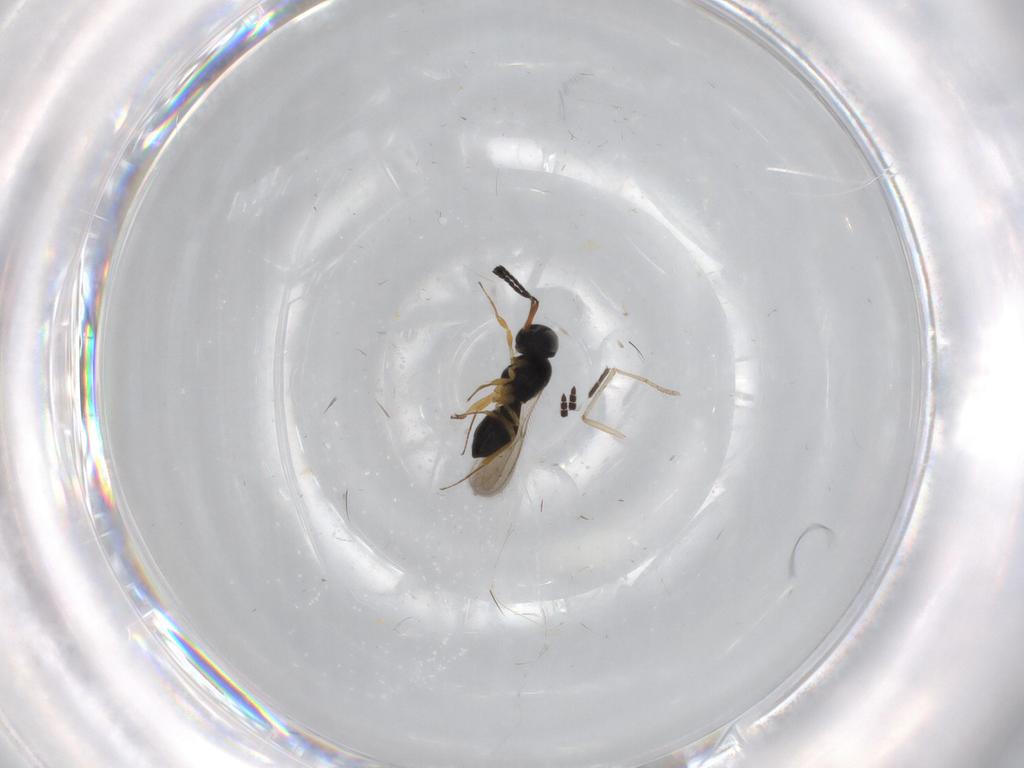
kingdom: Animalia
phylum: Arthropoda
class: Insecta
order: Hymenoptera
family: Scelionidae
